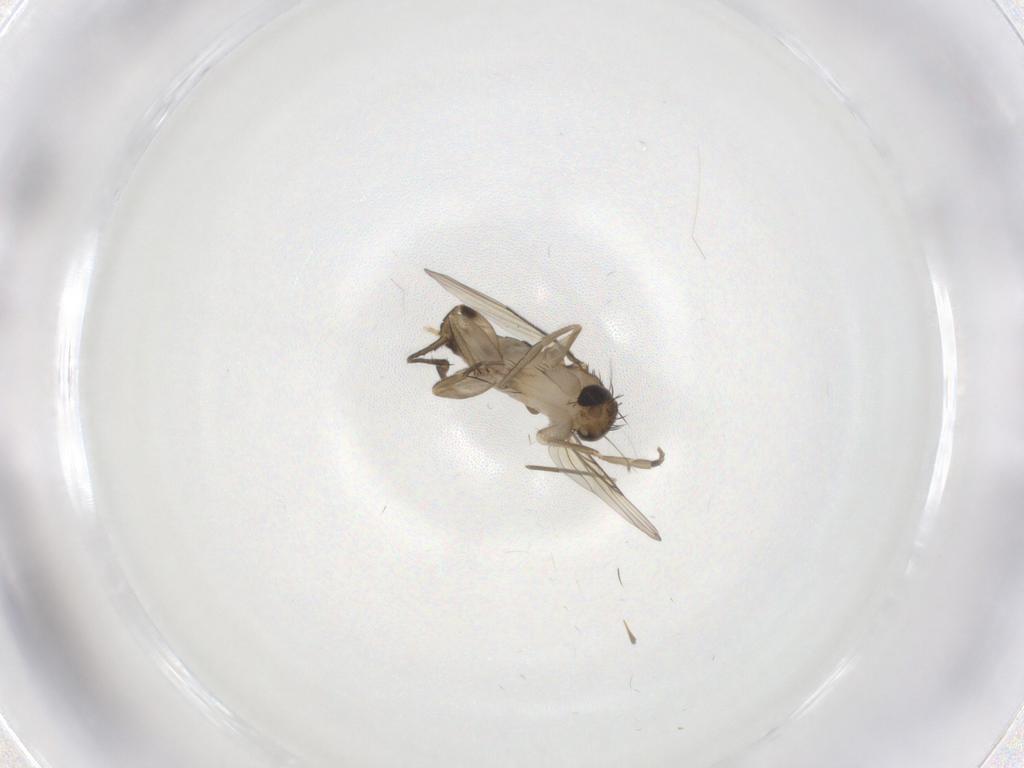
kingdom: Animalia
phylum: Arthropoda
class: Insecta
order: Diptera
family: Phoridae
